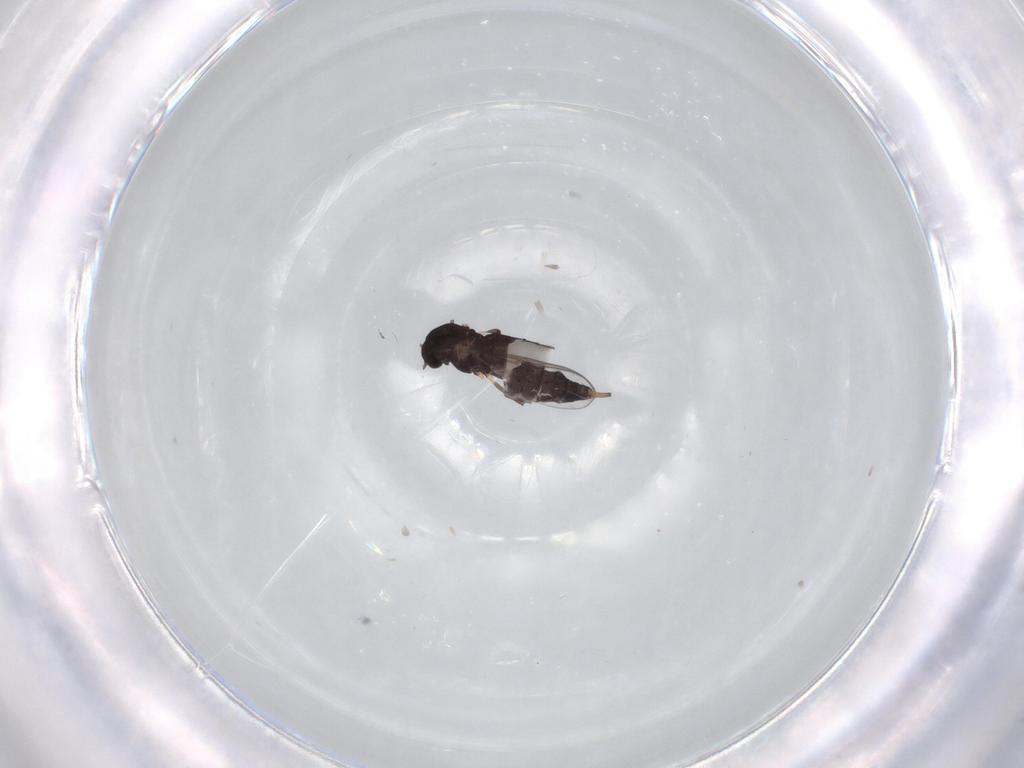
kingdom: Animalia
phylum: Arthropoda
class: Insecta
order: Diptera
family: Chironomidae
